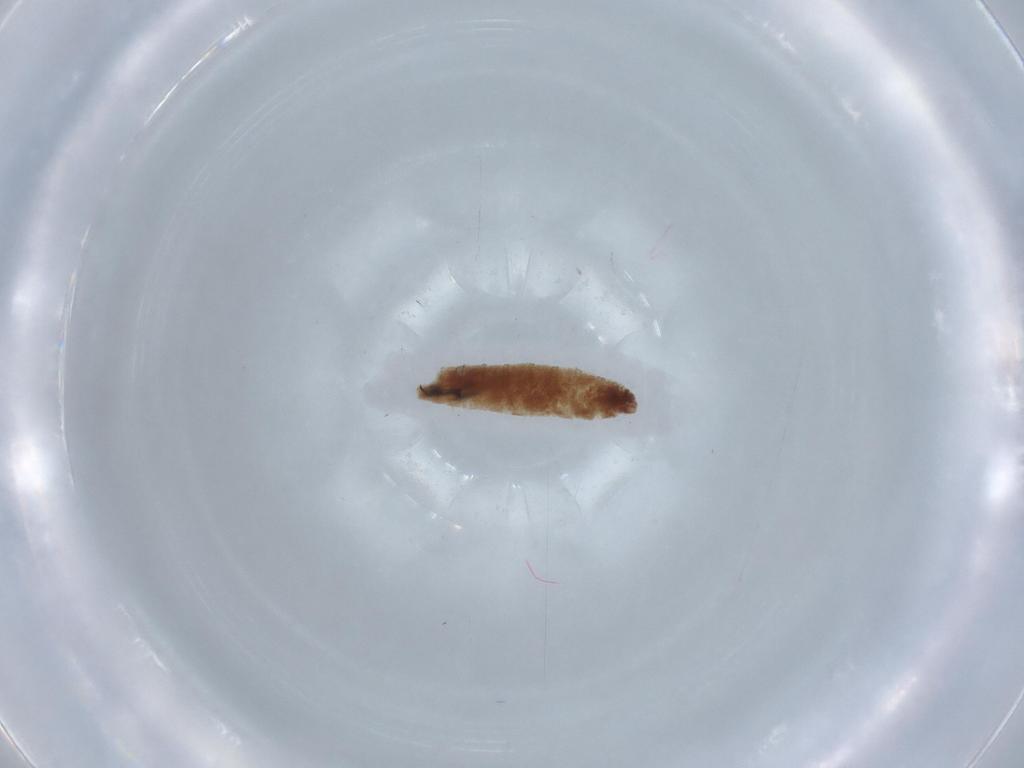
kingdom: Animalia
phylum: Arthropoda
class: Insecta
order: Diptera
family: Sarcophagidae
